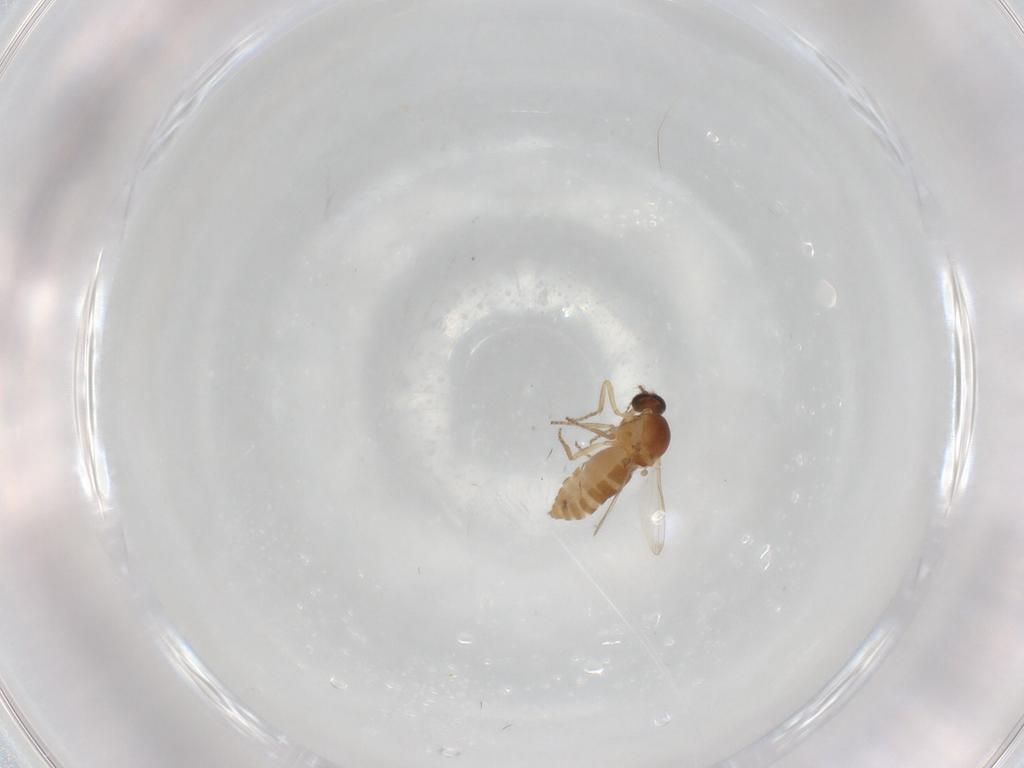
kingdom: Animalia
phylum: Arthropoda
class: Insecta
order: Diptera
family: Ceratopogonidae
